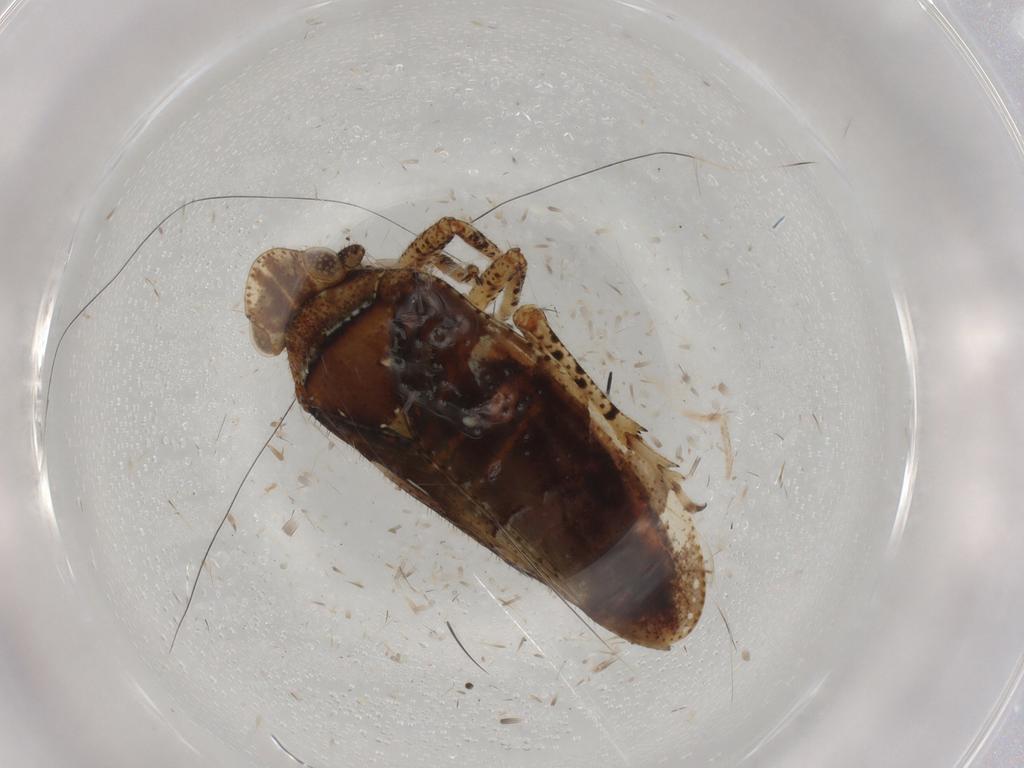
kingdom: Animalia
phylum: Arthropoda
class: Insecta
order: Hemiptera
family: Tettigometridae
